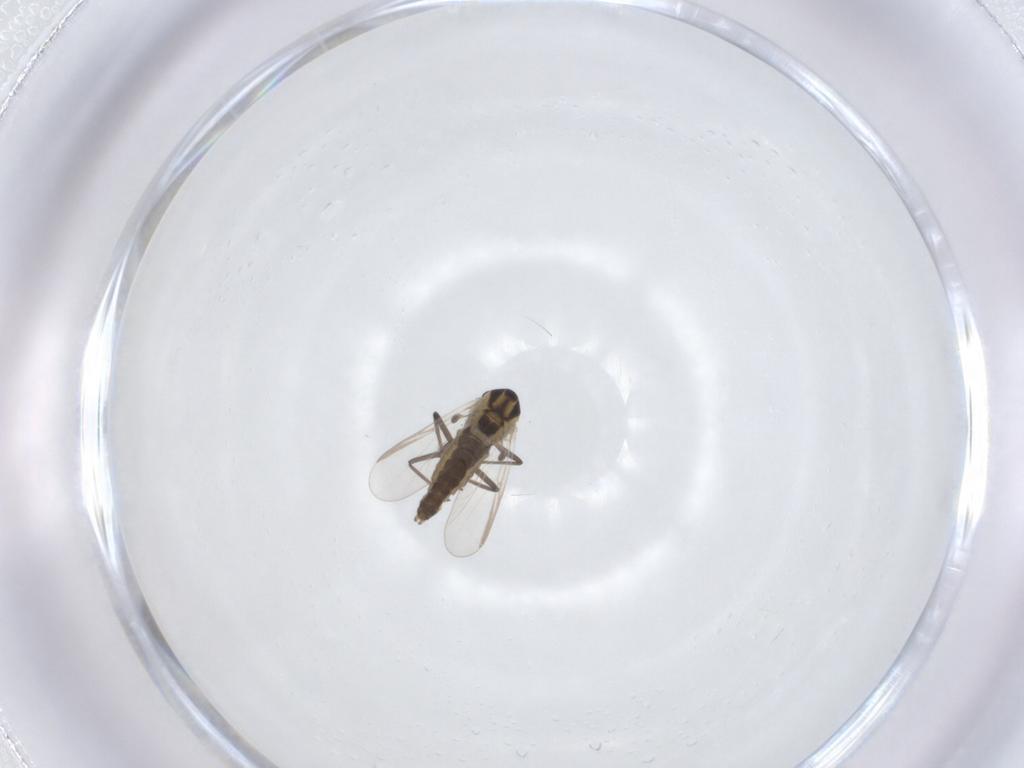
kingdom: Animalia
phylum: Arthropoda
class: Insecta
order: Diptera
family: Chironomidae
